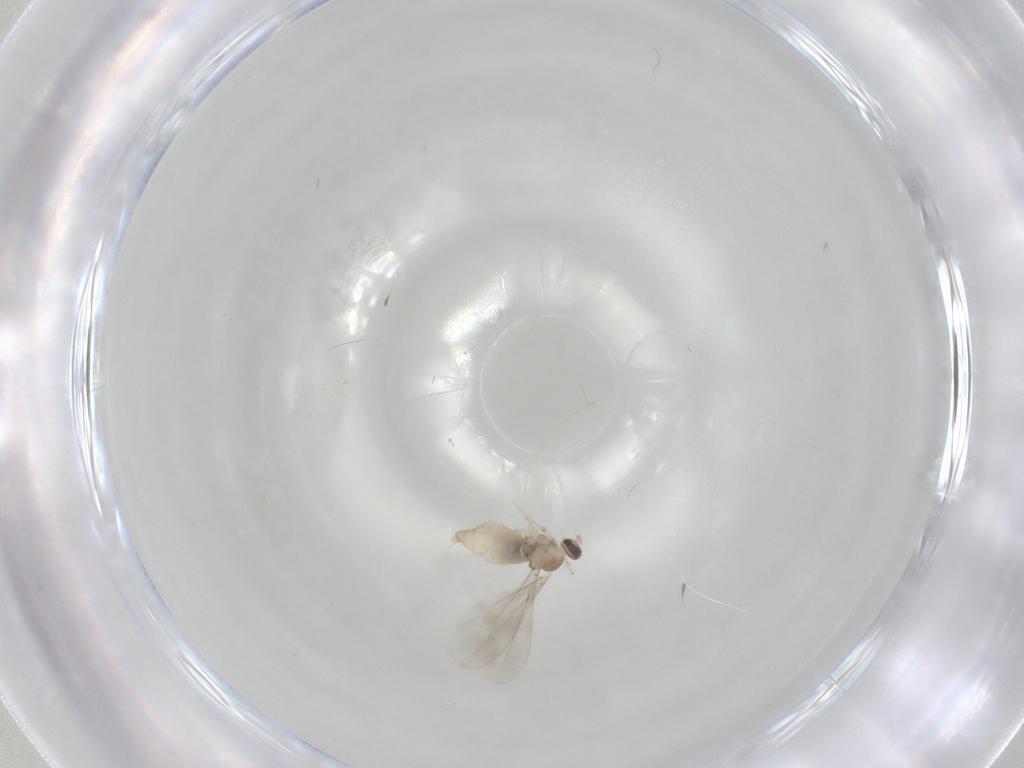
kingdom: Animalia
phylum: Arthropoda
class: Insecta
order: Diptera
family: Cecidomyiidae
